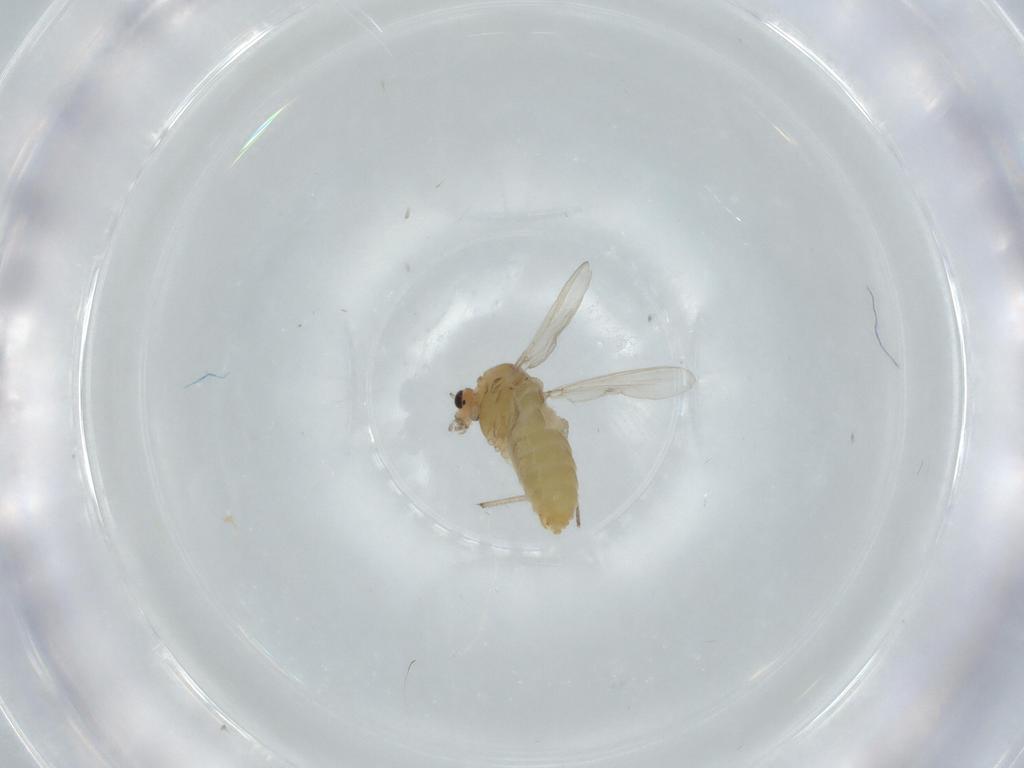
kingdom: Animalia
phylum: Arthropoda
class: Insecta
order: Diptera
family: Chironomidae
